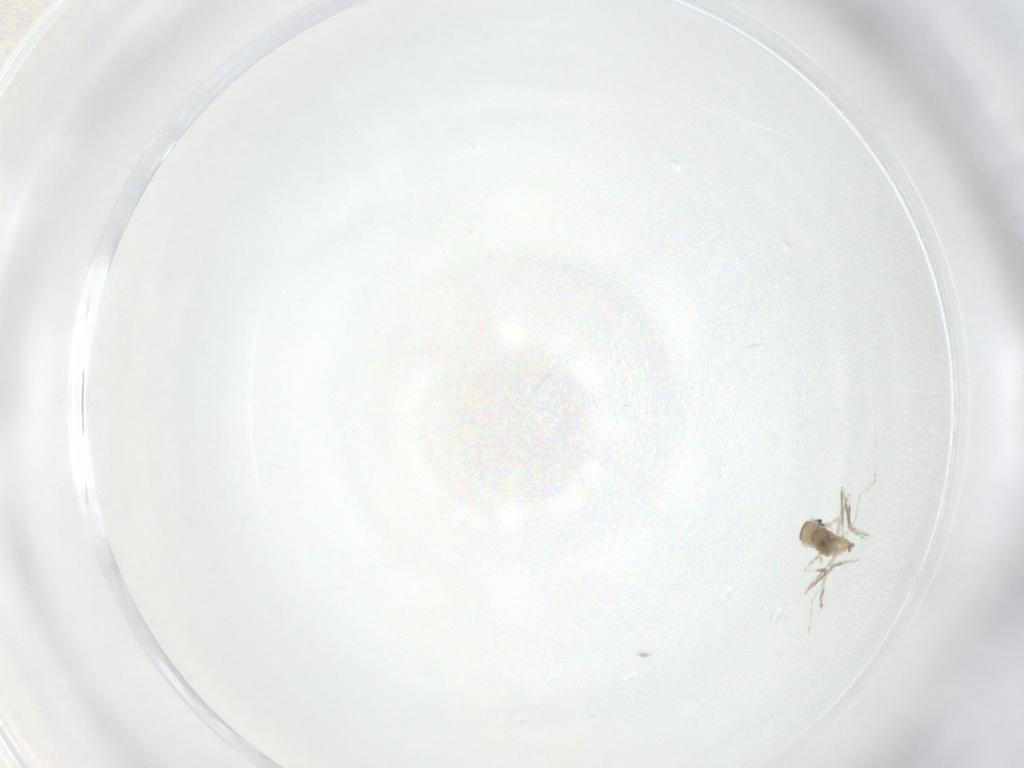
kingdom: Animalia
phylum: Arthropoda
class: Insecta
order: Diptera
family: Cecidomyiidae
